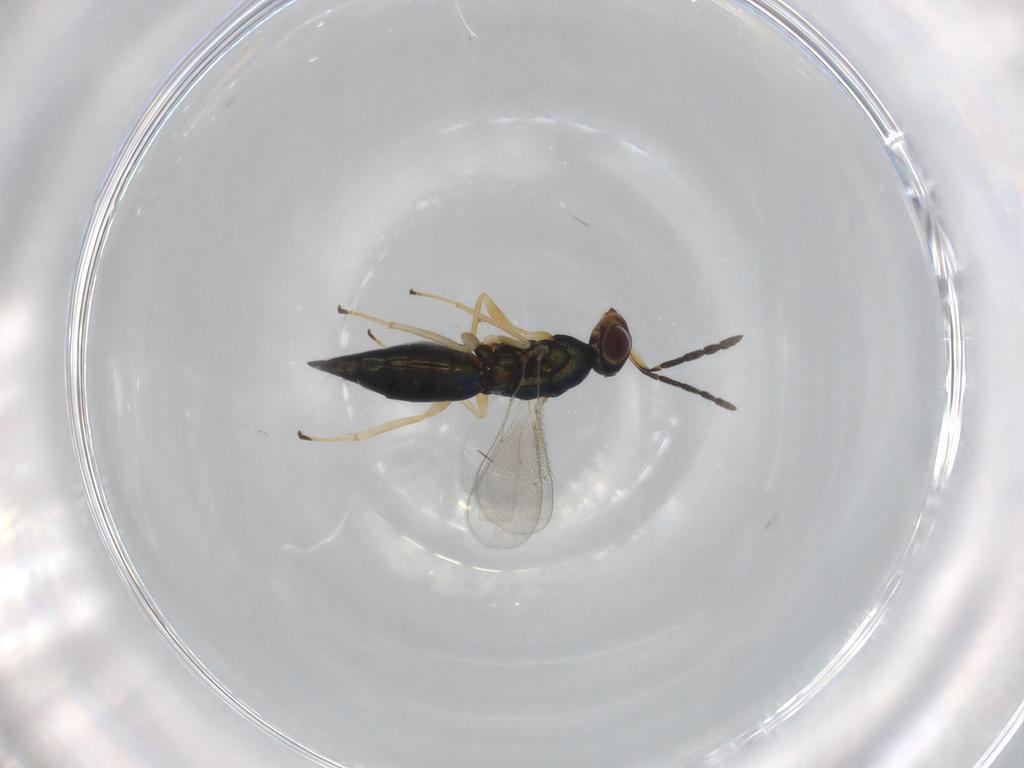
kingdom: Animalia
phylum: Arthropoda
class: Insecta
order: Hymenoptera
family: Eulophidae
